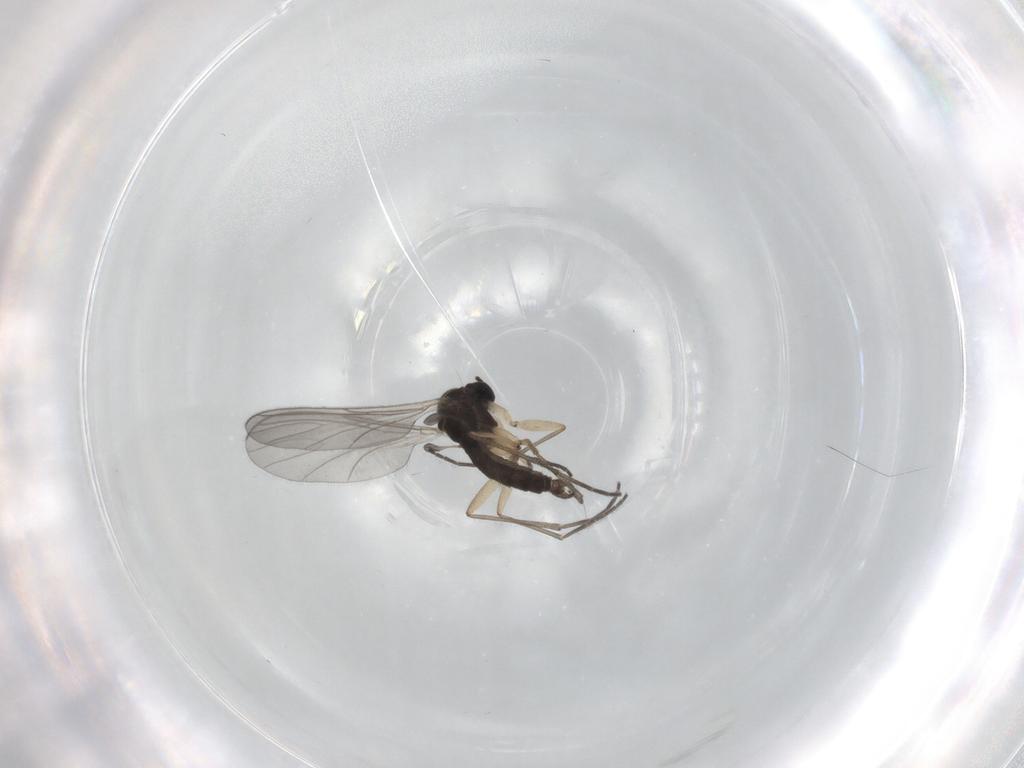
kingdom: Animalia
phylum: Arthropoda
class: Insecta
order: Diptera
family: Sciaridae
